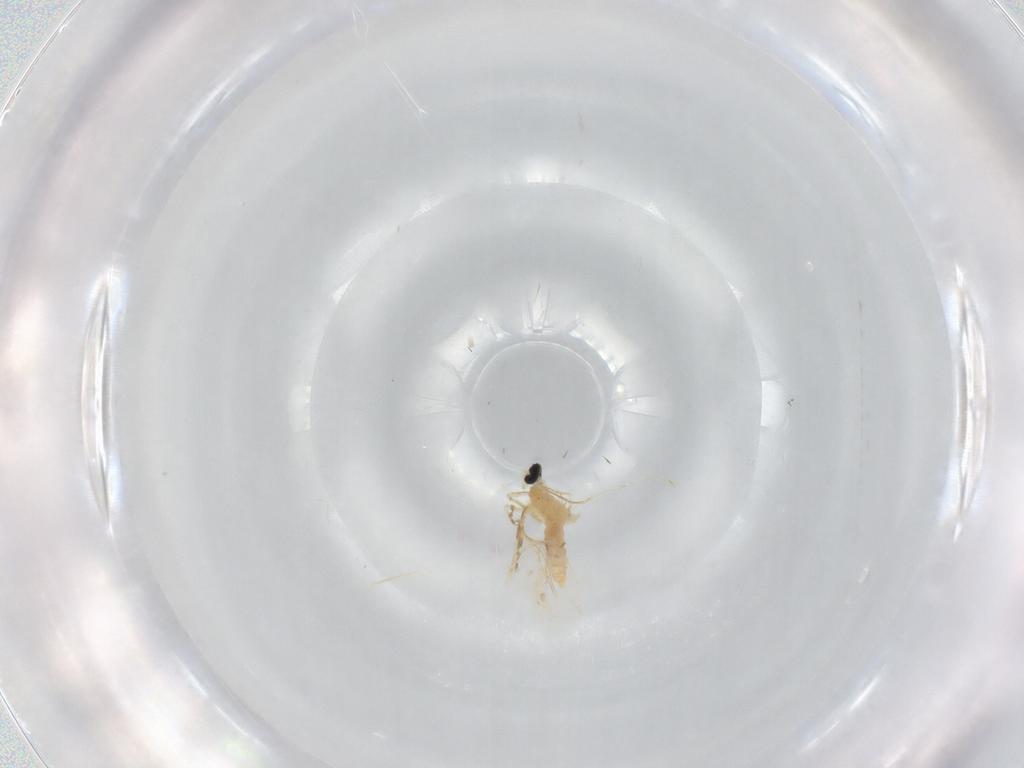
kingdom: Animalia
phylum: Arthropoda
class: Insecta
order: Diptera
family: Cecidomyiidae
